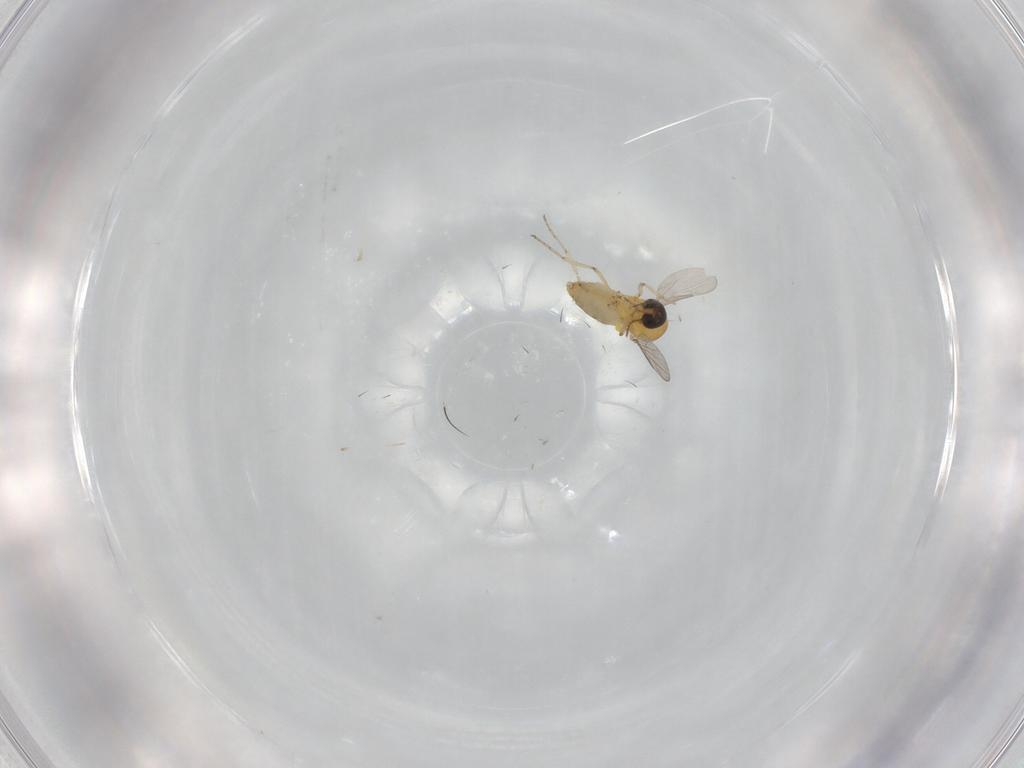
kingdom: Animalia
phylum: Arthropoda
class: Insecta
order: Diptera
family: Ceratopogonidae
